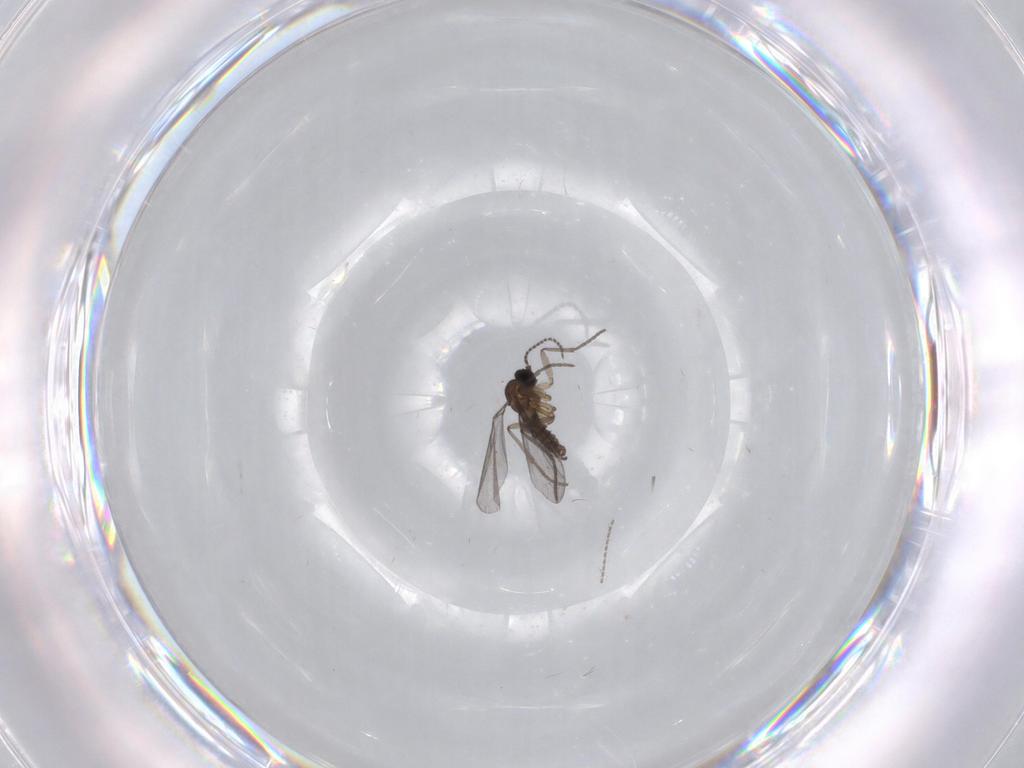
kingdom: Animalia
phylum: Arthropoda
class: Insecta
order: Diptera
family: Psychodidae
